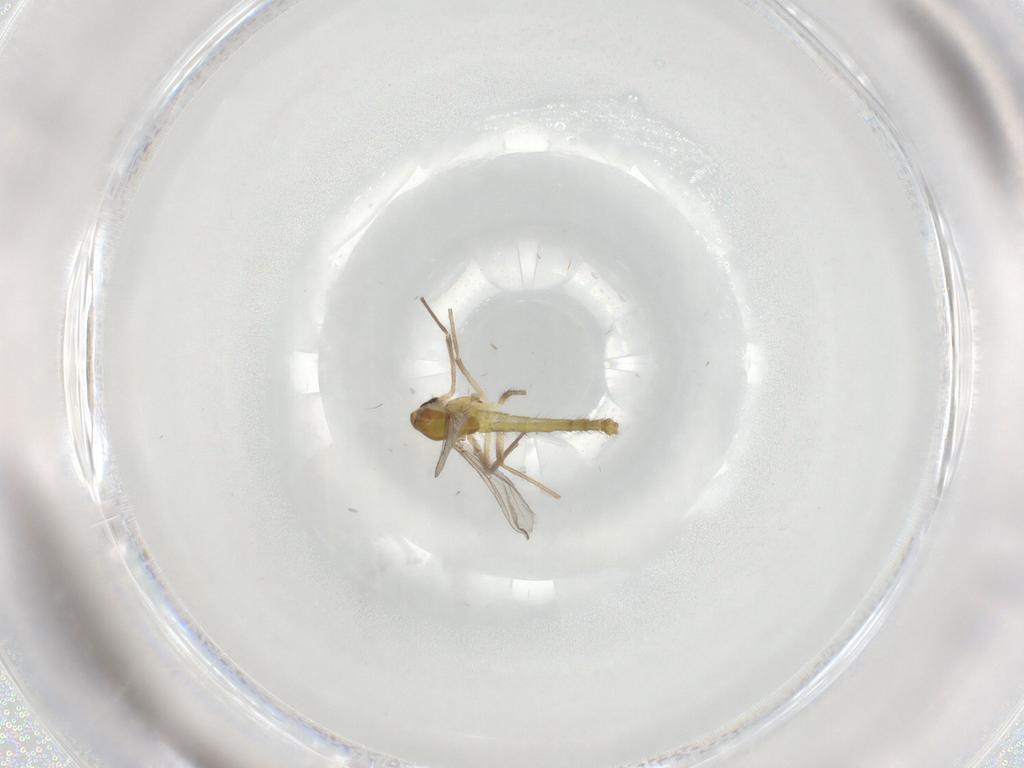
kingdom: Animalia
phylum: Arthropoda
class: Insecta
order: Diptera
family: Chironomidae
